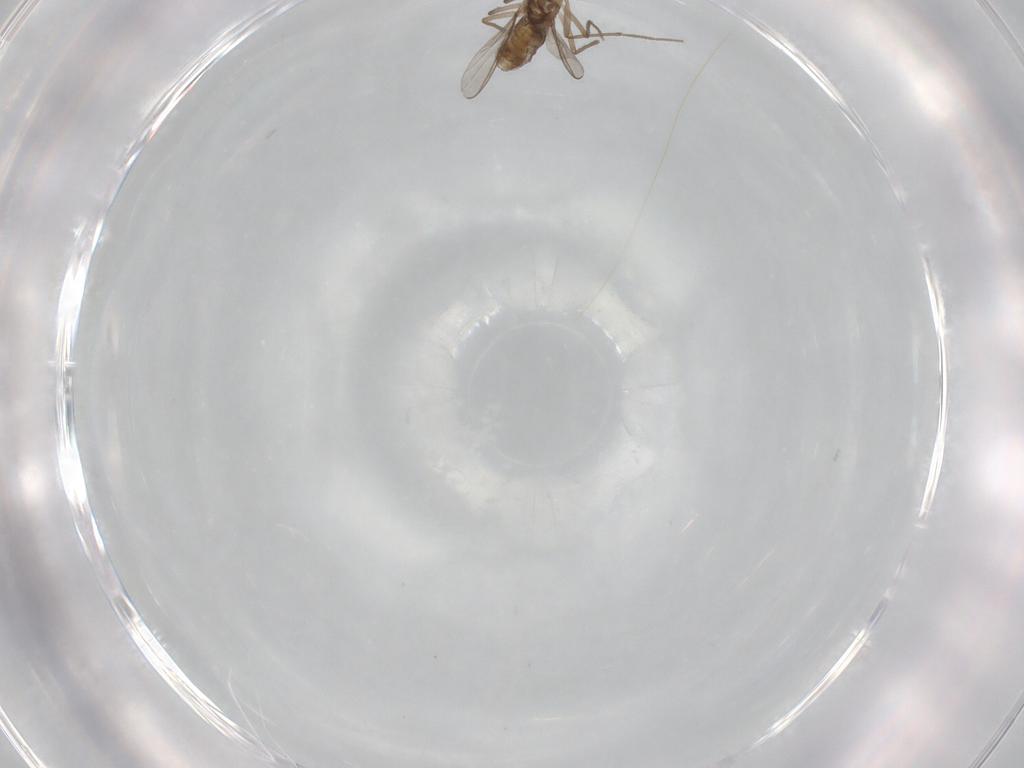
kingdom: Animalia
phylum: Arthropoda
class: Insecta
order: Diptera
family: Chironomidae
